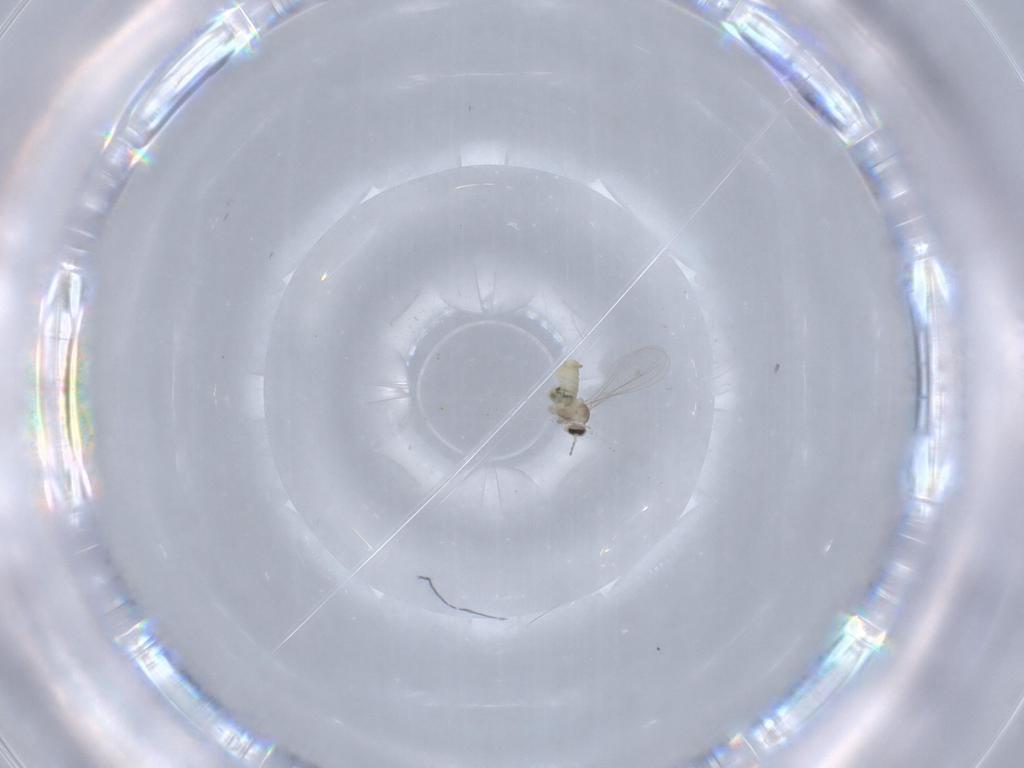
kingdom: Animalia
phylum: Arthropoda
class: Insecta
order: Diptera
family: Cecidomyiidae
